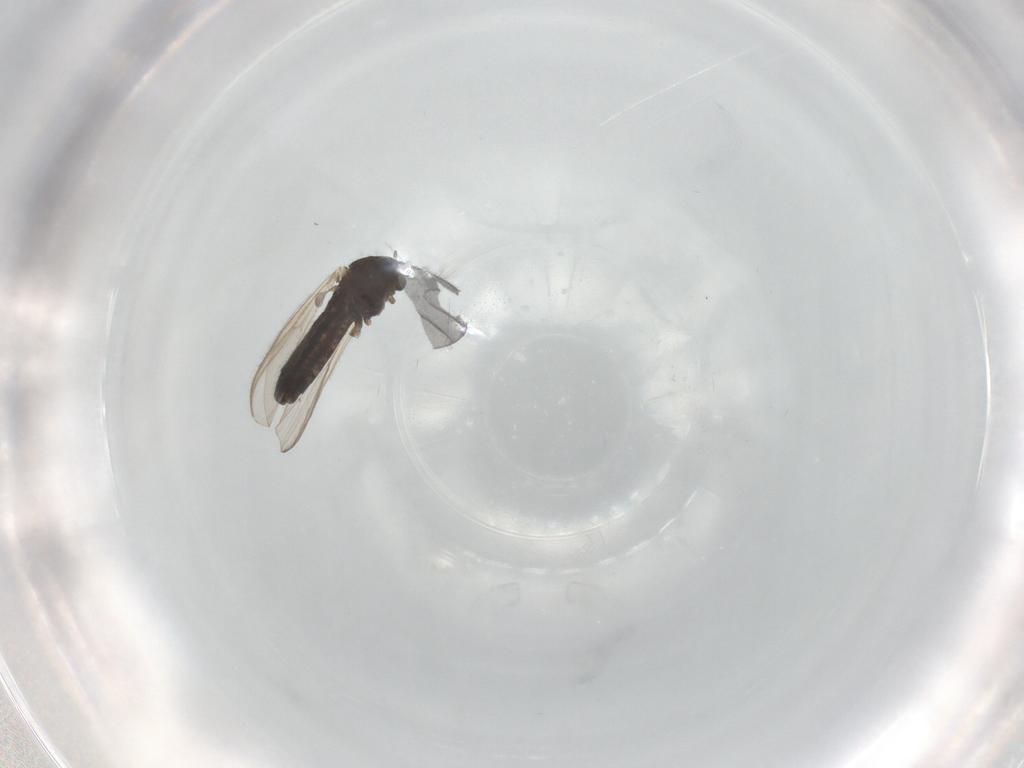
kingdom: Animalia
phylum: Arthropoda
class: Insecta
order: Diptera
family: Chironomidae
